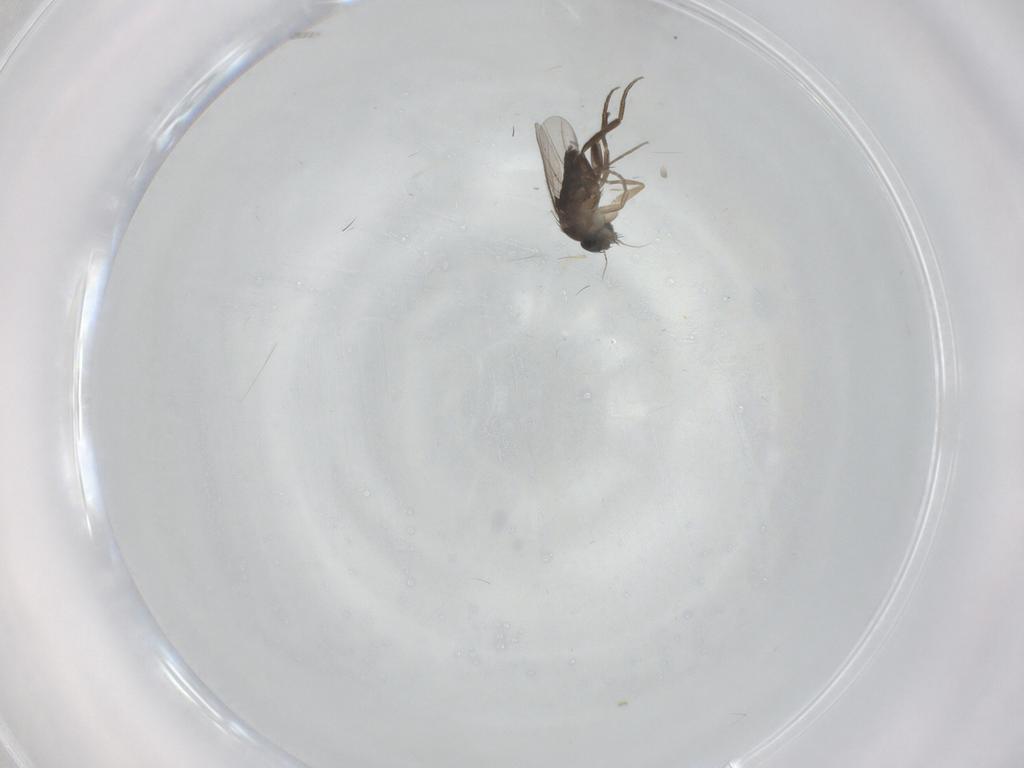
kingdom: Animalia
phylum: Arthropoda
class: Insecta
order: Diptera
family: Phoridae
